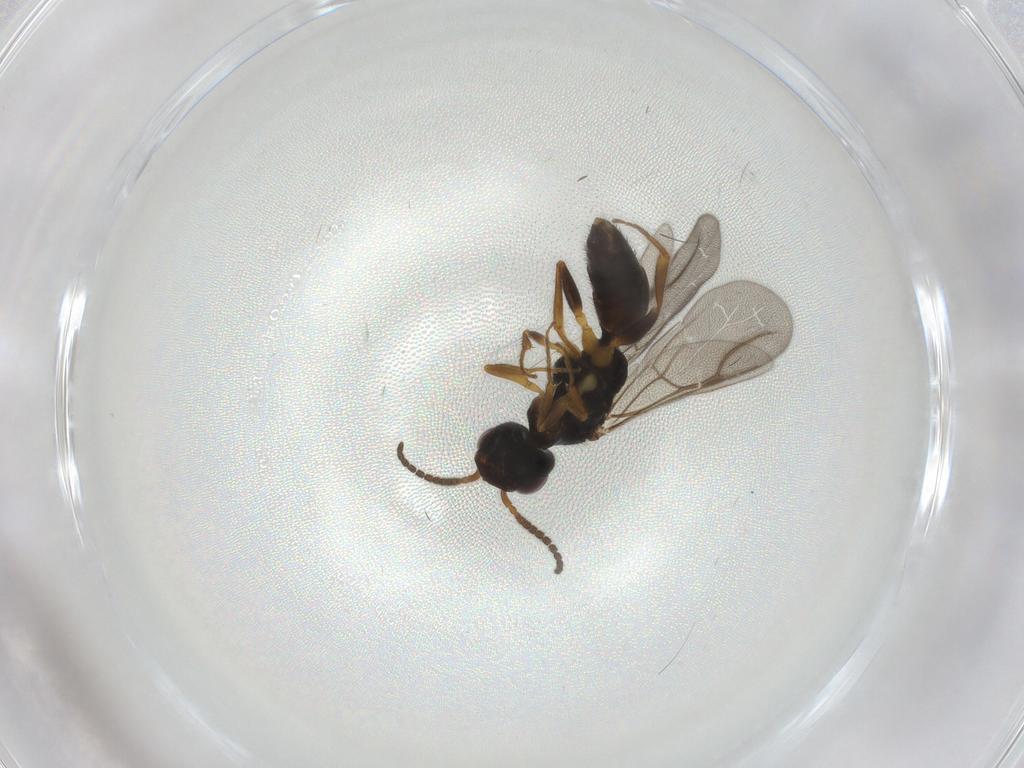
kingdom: Animalia
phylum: Arthropoda
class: Insecta
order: Hymenoptera
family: Bethylidae
